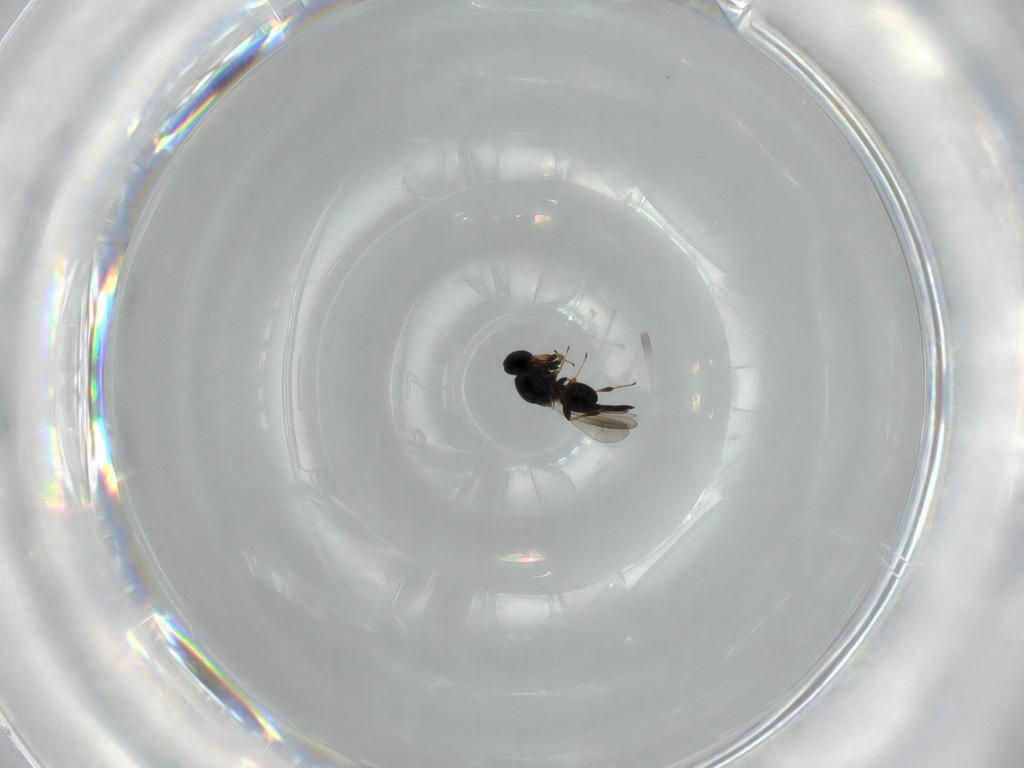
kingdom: Animalia
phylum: Arthropoda
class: Insecta
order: Hymenoptera
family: Platygastridae
